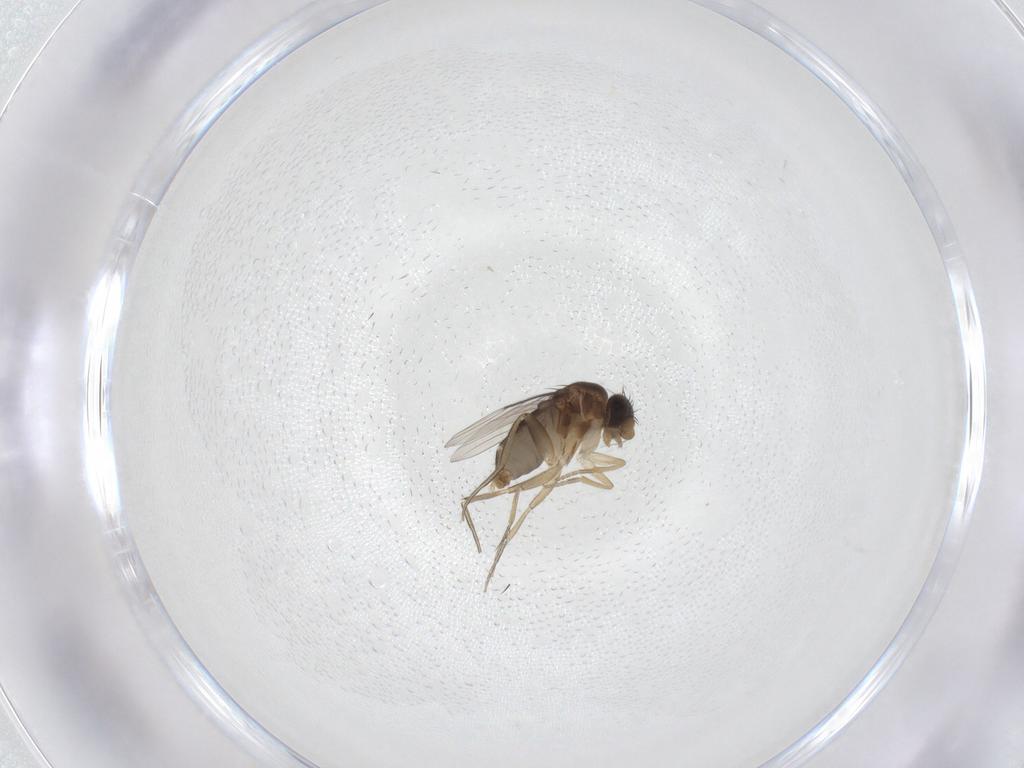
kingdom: Animalia
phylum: Arthropoda
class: Insecta
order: Diptera
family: Phoridae
